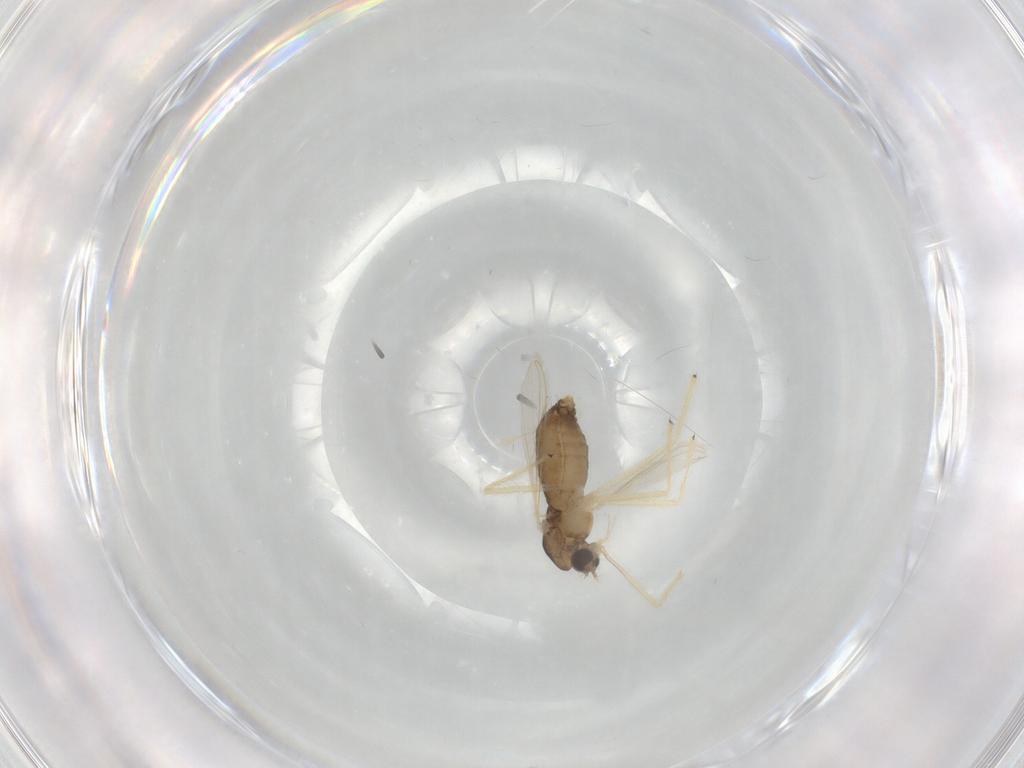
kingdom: Animalia
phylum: Arthropoda
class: Insecta
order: Diptera
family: Chironomidae
